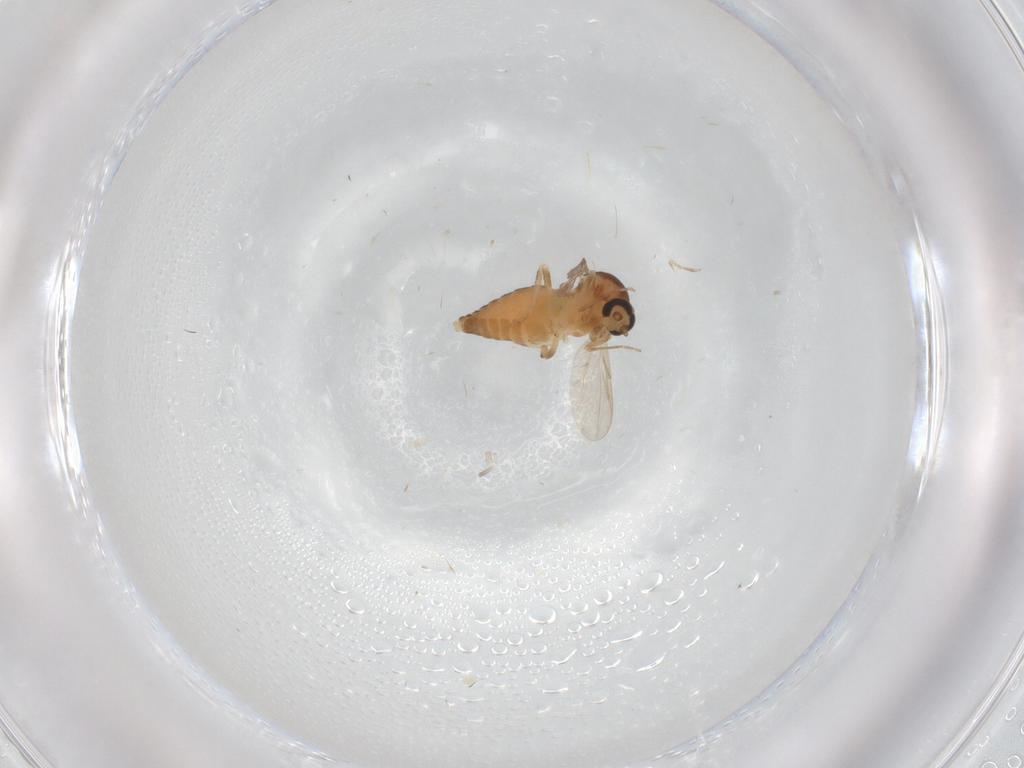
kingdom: Animalia
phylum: Arthropoda
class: Insecta
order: Diptera
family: Ceratopogonidae
